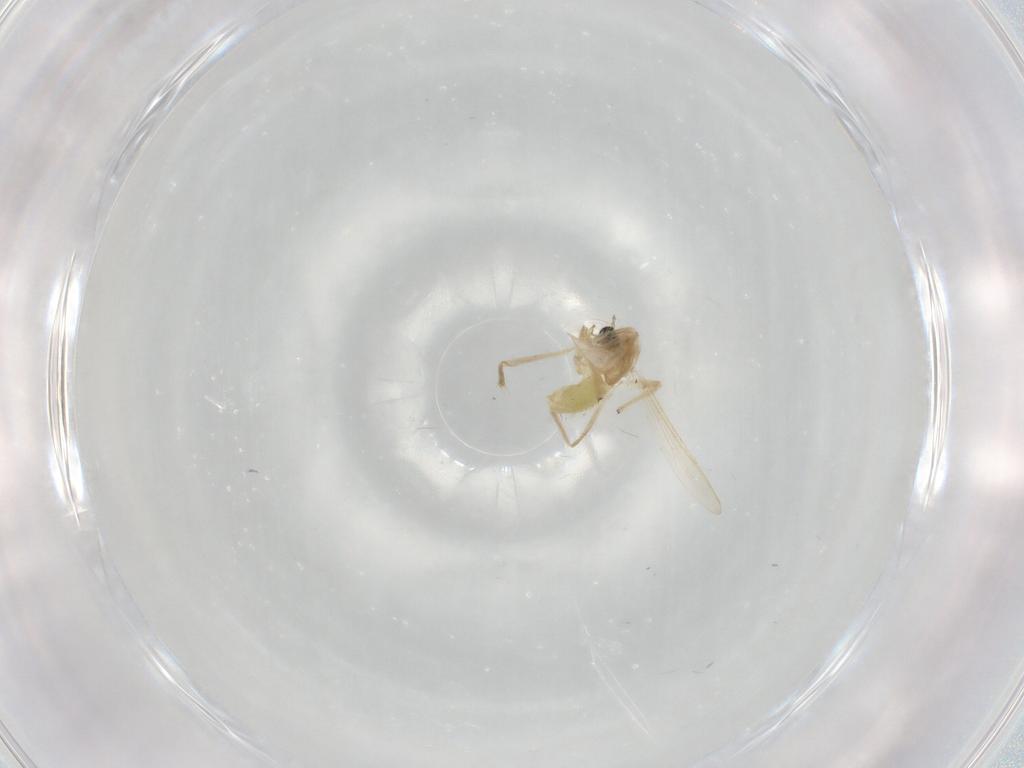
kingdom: Animalia
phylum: Arthropoda
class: Insecta
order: Diptera
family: Chironomidae
